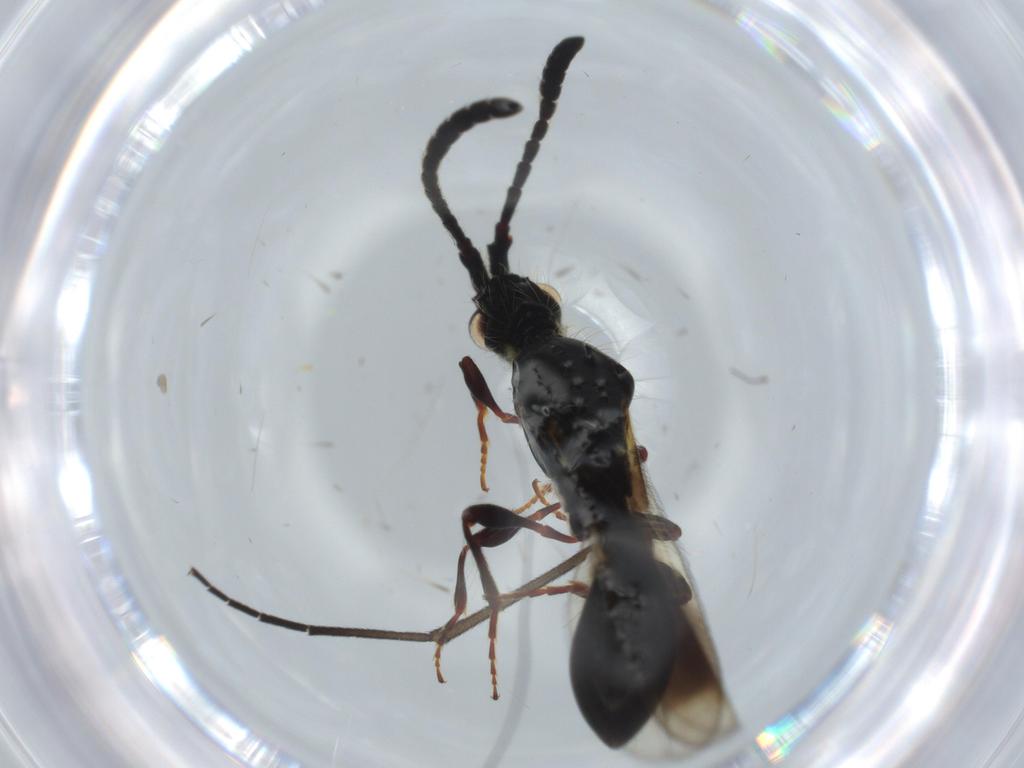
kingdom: Animalia
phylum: Arthropoda
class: Insecta
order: Hymenoptera
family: Diapriidae
